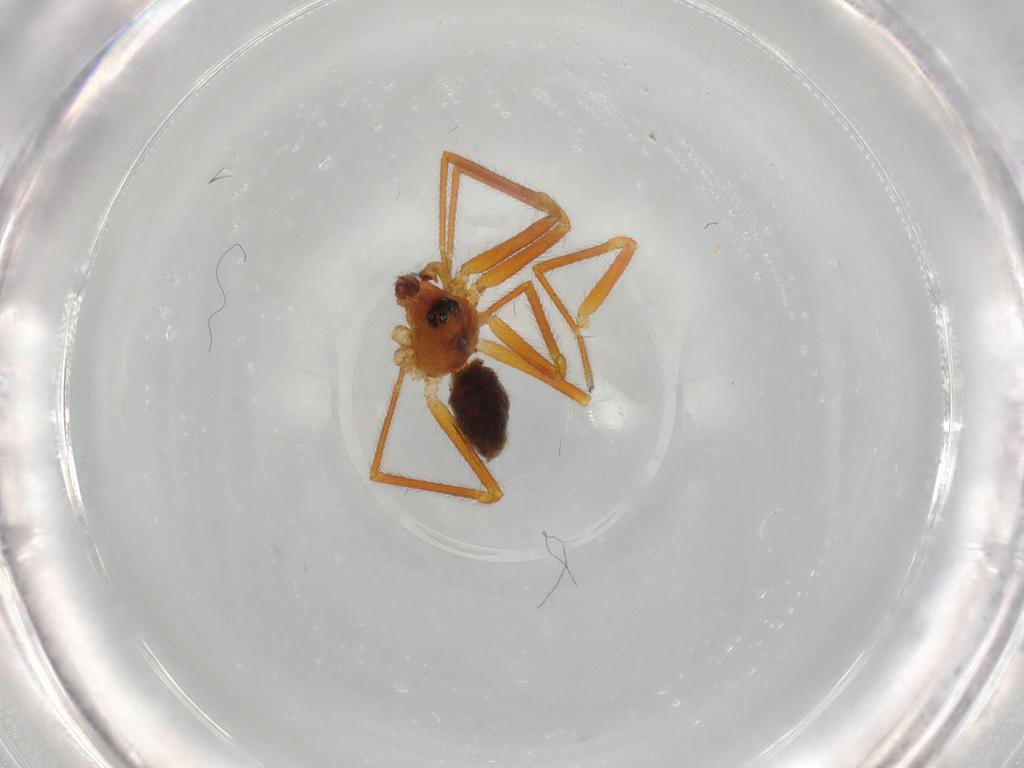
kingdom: Animalia
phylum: Arthropoda
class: Arachnida
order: Araneae
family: Linyphiidae
